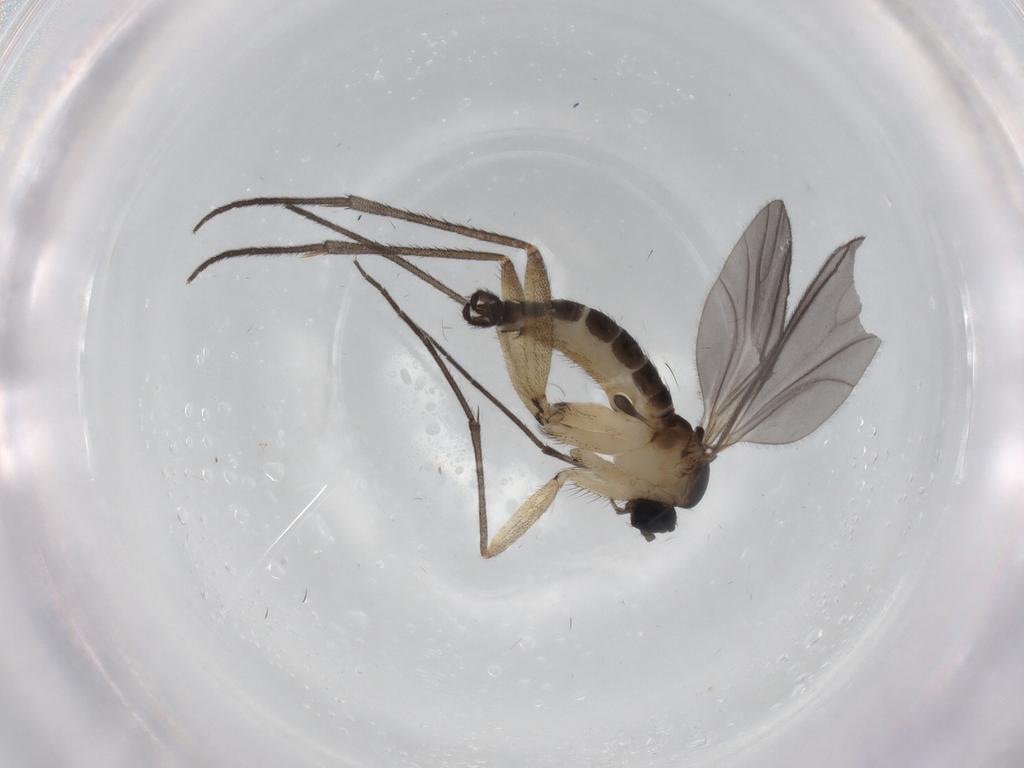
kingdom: Animalia
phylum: Arthropoda
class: Insecta
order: Diptera
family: Sciaridae
